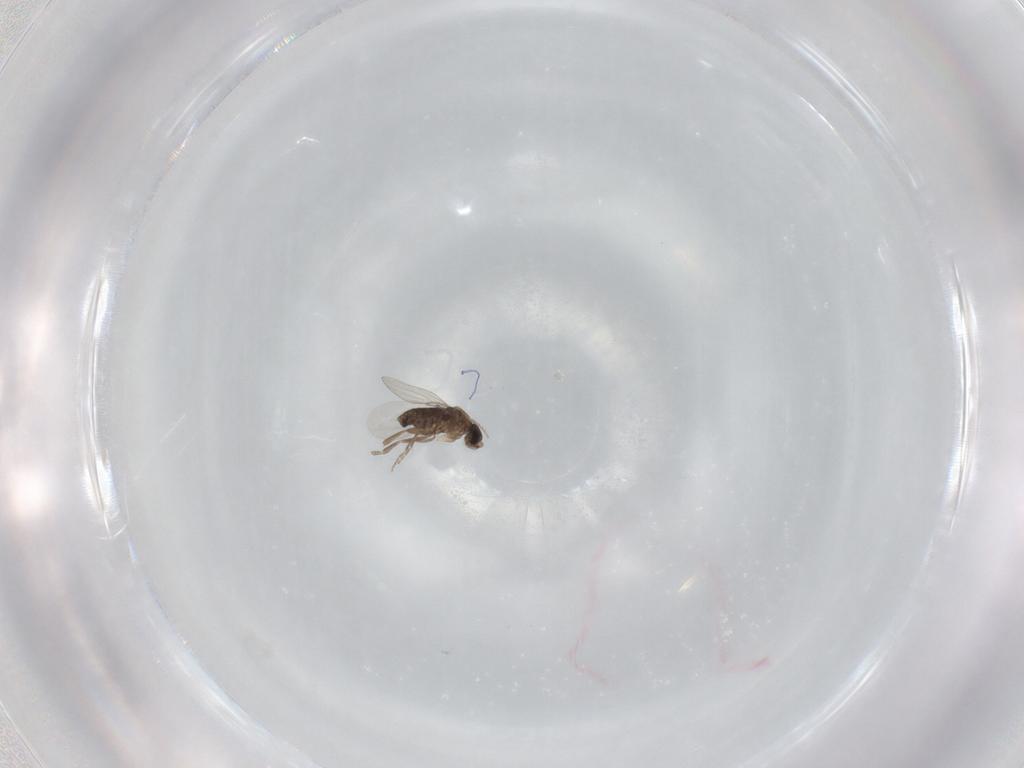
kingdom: Animalia
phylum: Arthropoda
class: Insecta
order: Diptera
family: Phoridae
